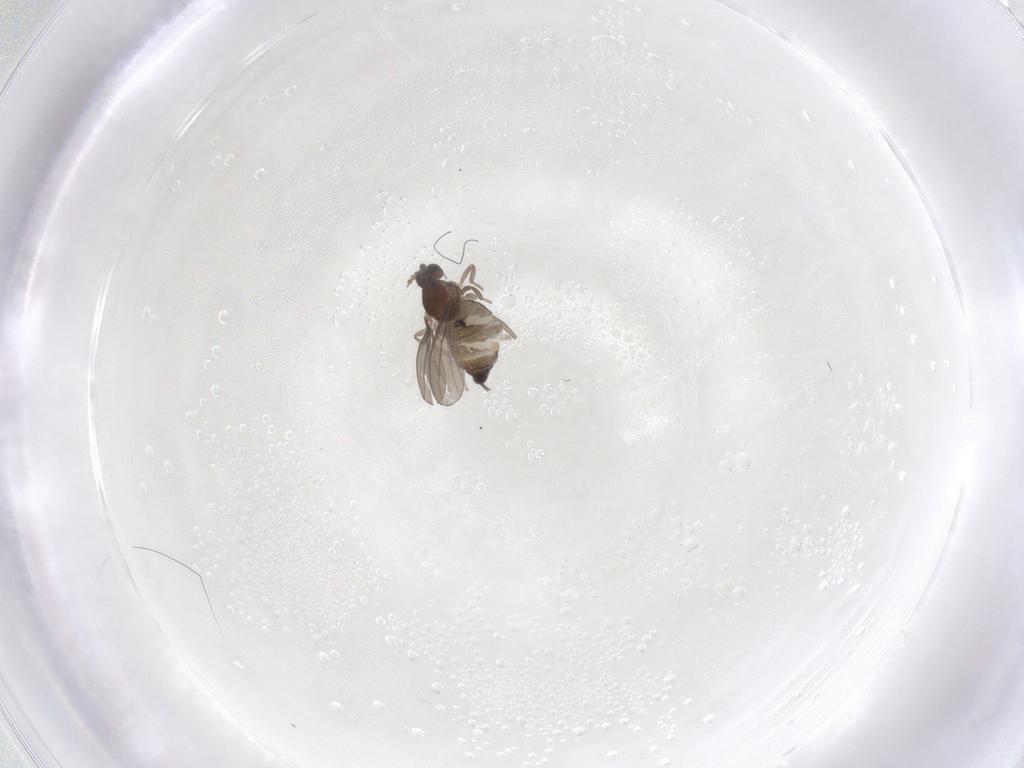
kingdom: Animalia
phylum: Arthropoda
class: Insecta
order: Diptera
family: Cecidomyiidae
